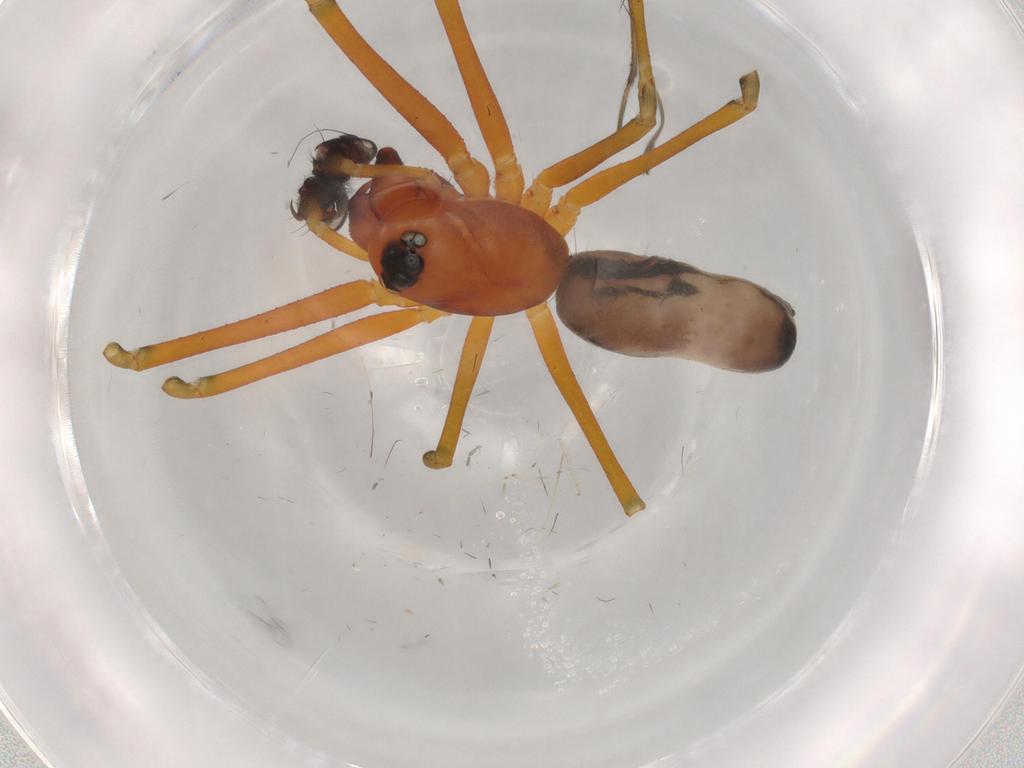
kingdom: Animalia
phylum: Arthropoda
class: Arachnida
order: Araneae
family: Linyphiidae
